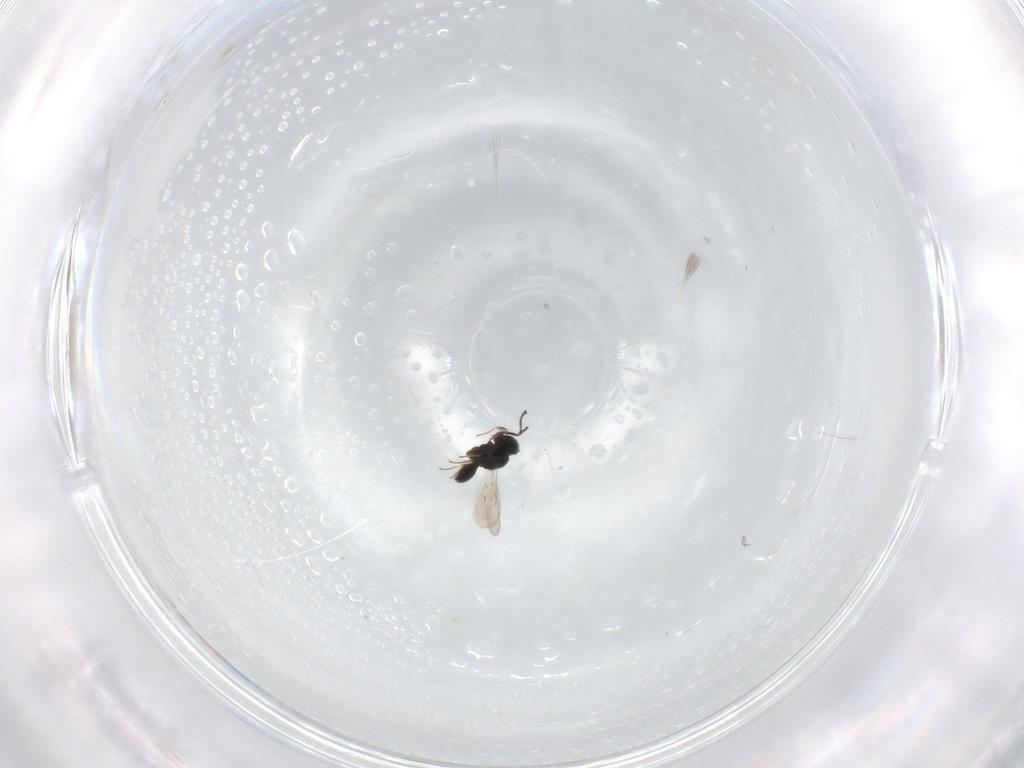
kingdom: Animalia
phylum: Arthropoda
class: Insecta
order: Hymenoptera
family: Scelionidae
